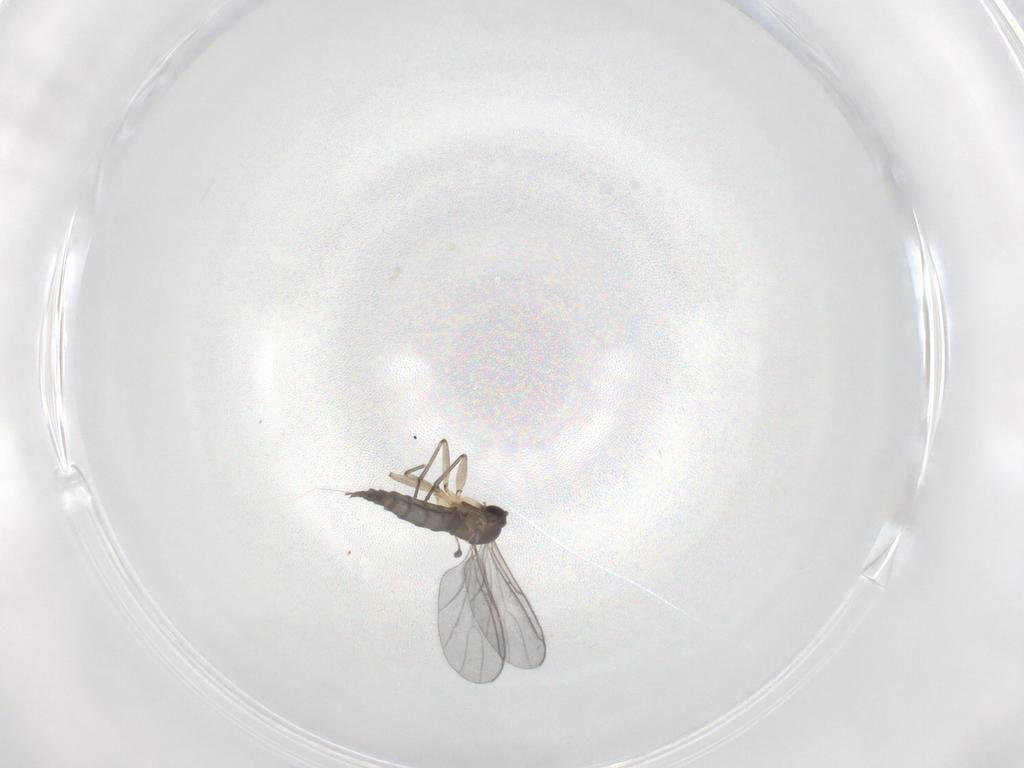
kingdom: Animalia
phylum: Arthropoda
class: Insecta
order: Diptera
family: Sciaridae
